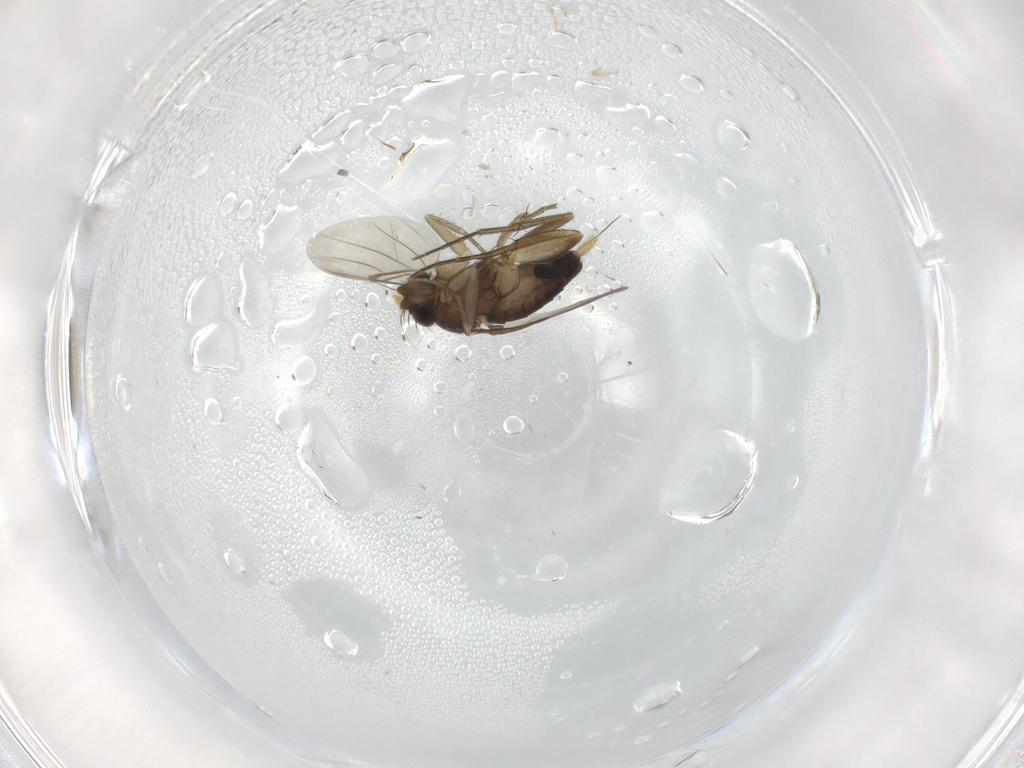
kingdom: Animalia
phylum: Arthropoda
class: Insecta
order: Diptera
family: Phoridae
